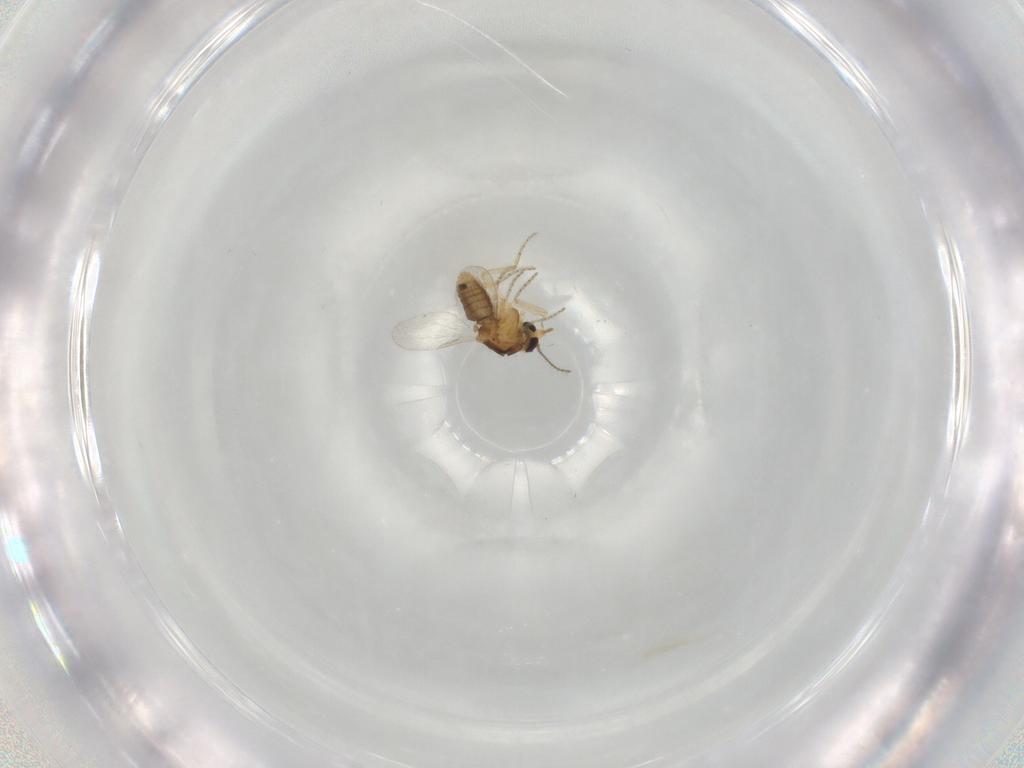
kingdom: Animalia
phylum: Arthropoda
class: Insecta
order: Diptera
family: Ceratopogonidae
